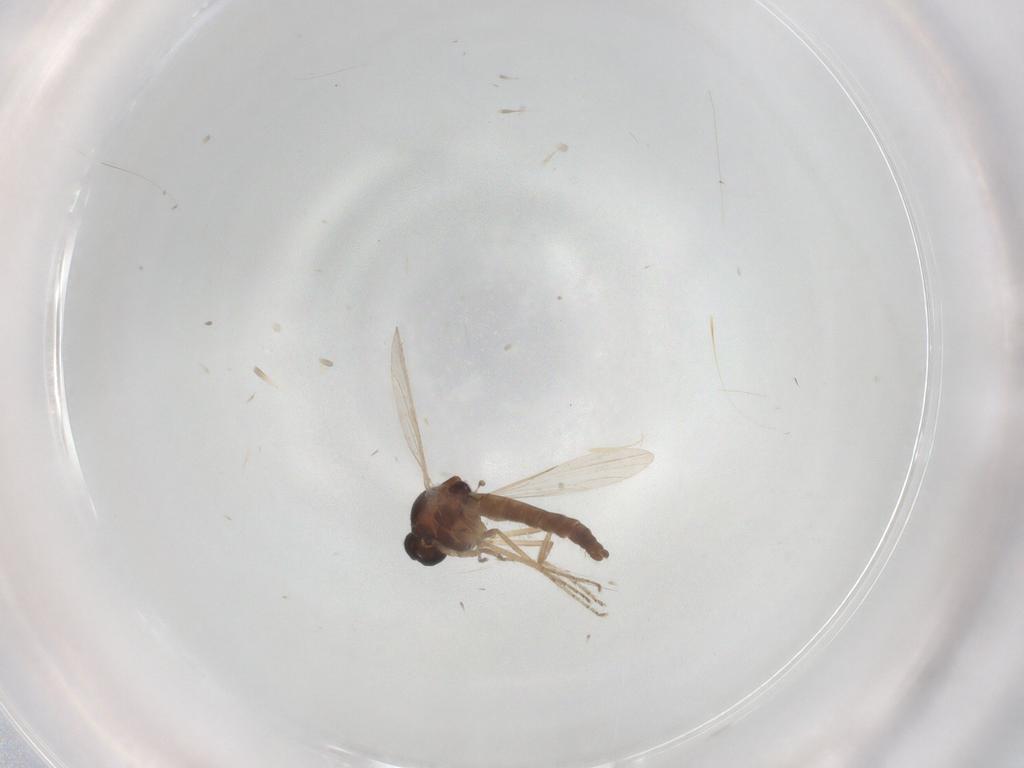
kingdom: Animalia
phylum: Arthropoda
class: Insecta
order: Diptera
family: Ceratopogonidae
